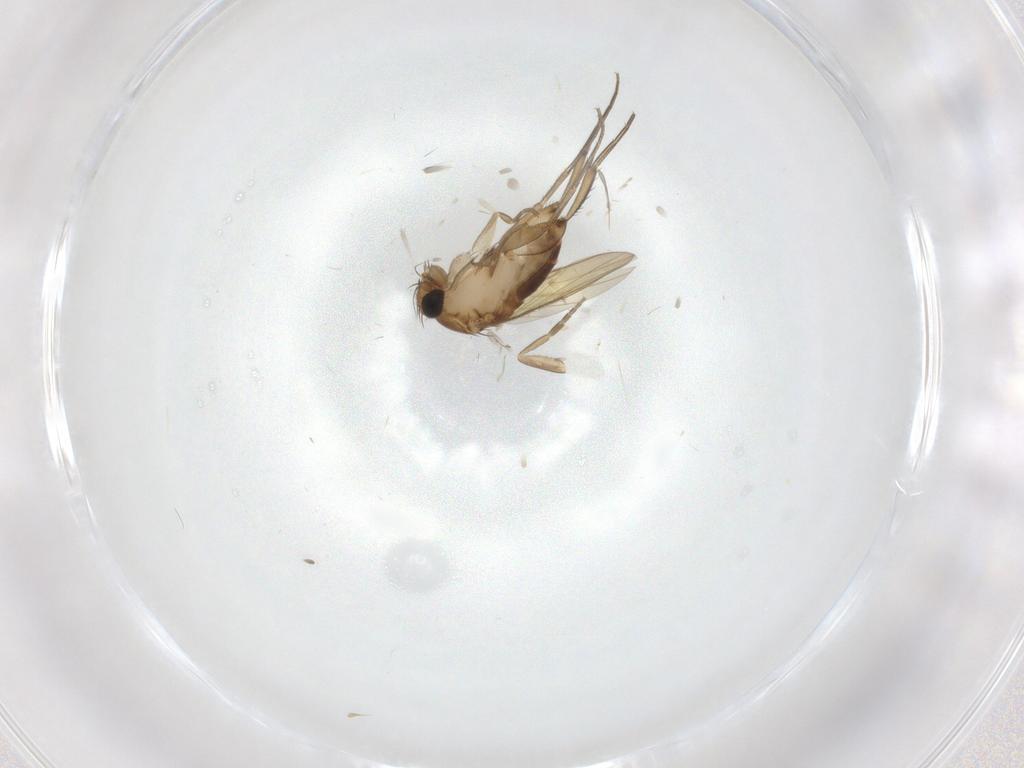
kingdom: Animalia
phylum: Arthropoda
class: Insecta
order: Diptera
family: Phoridae
